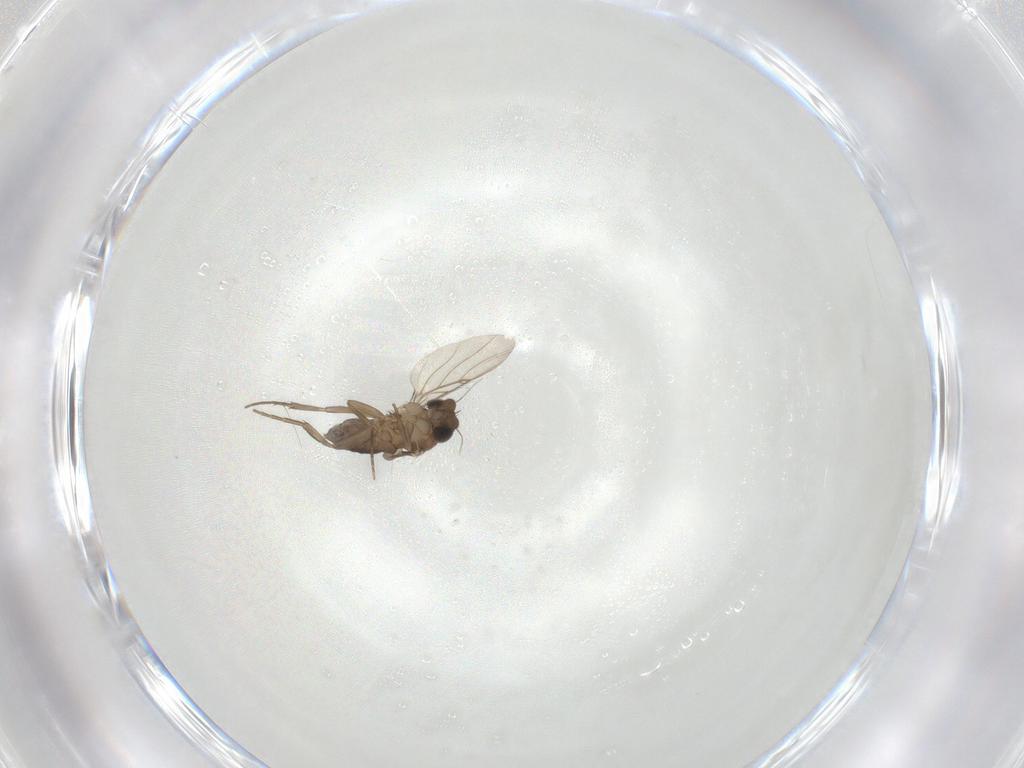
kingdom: Animalia
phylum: Arthropoda
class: Insecta
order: Diptera
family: Phoridae
